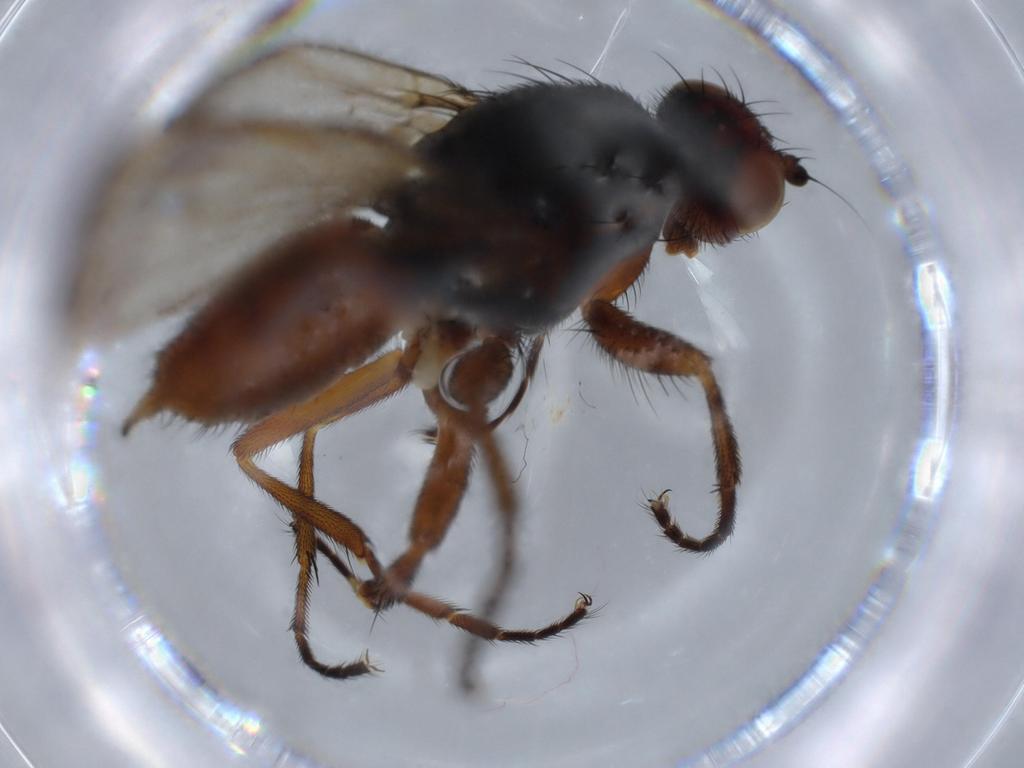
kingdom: Animalia
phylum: Arthropoda
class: Insecta
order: Diptera
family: Heleomyzidae
